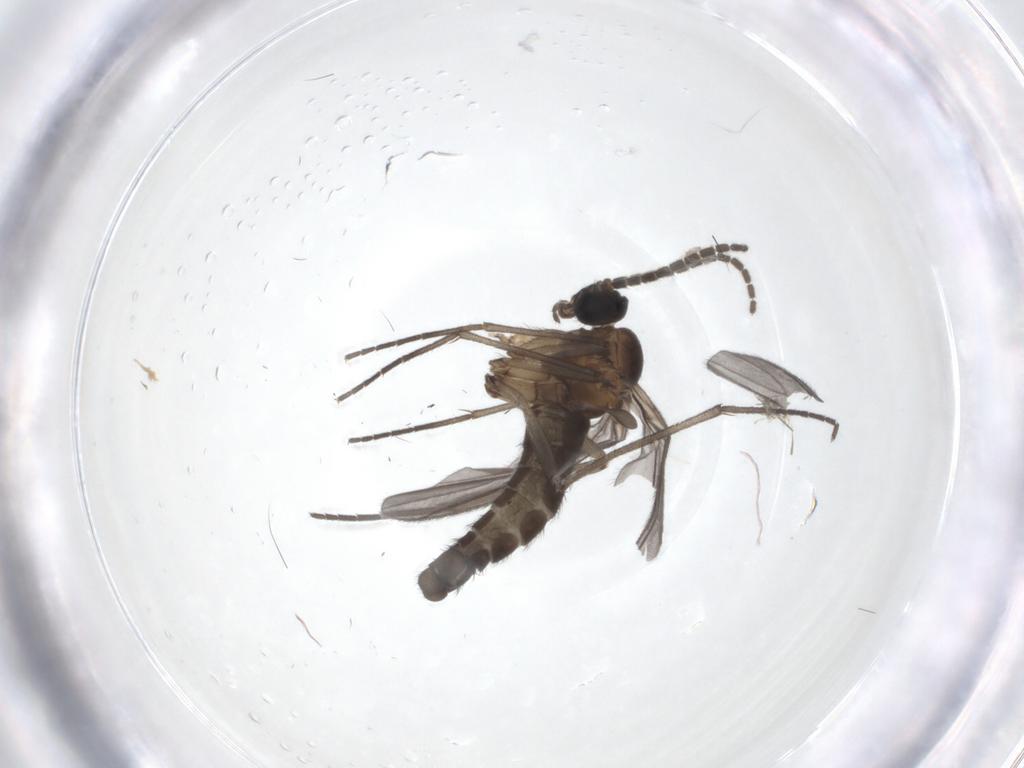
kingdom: Animalia
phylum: Arthropoda
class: Insecta
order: Diptera
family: Sciaridae
